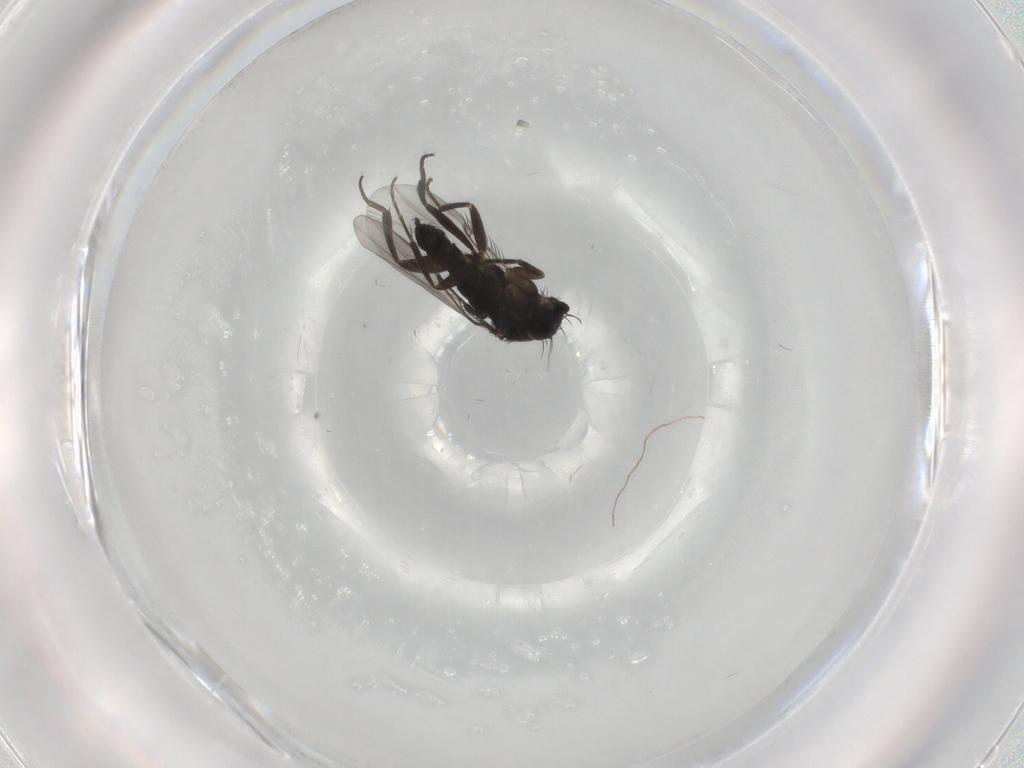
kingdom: Animalia
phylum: Arthropoda
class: Insecta
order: Diptera
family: Phoridae
